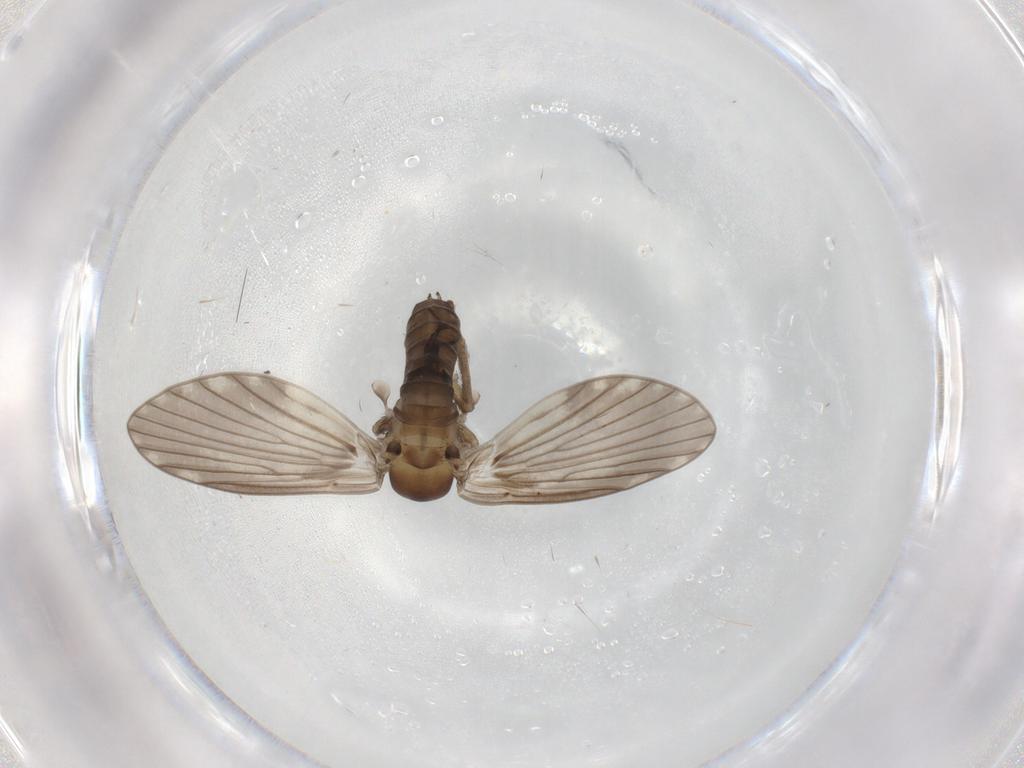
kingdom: Animalia
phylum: Arthropoda
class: Insecta
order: Diptera
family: Psychodidae
